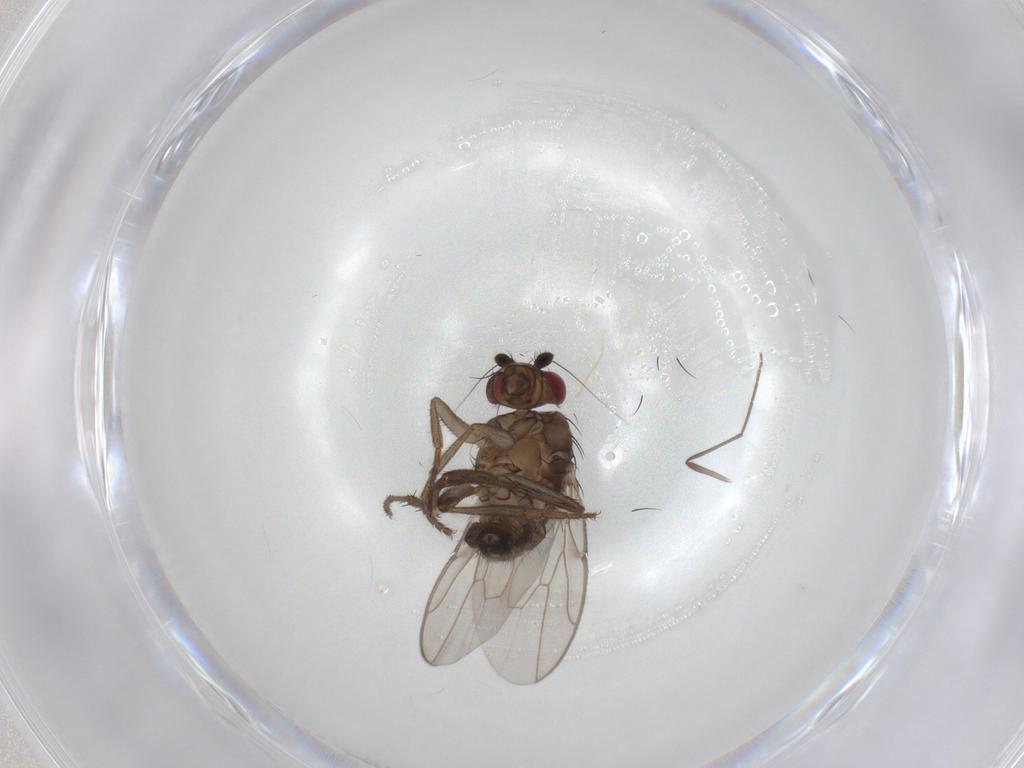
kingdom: Animalia
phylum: Arthropoda
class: Insecta
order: Diptera
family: Sphaeroceridae
